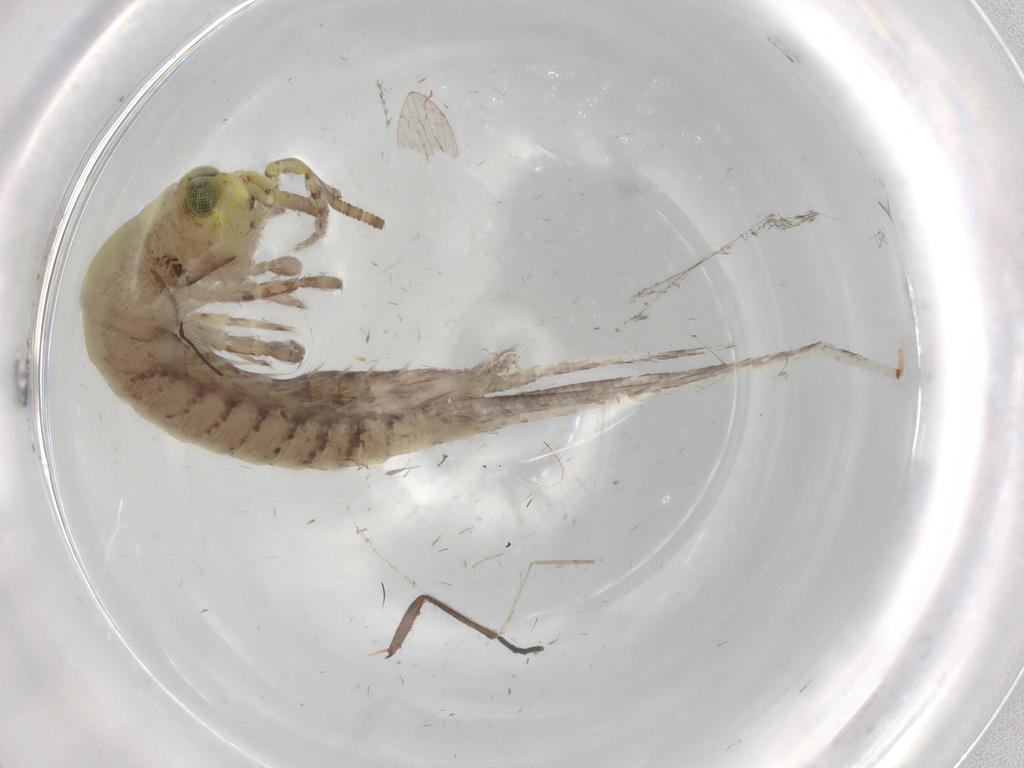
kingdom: Animalia
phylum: Arthropoda
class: Insecta
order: Archaeognatha
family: Machilidae
